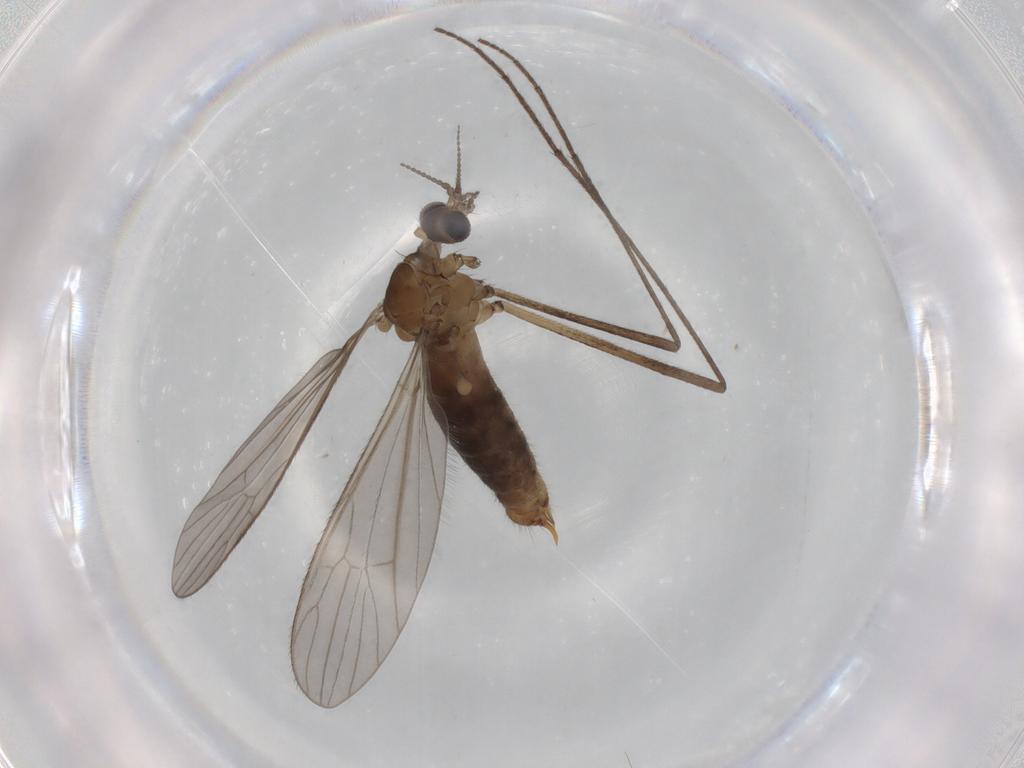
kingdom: Animalia
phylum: Arthropoda
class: Insecta
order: Diptera
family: Limoniidae
